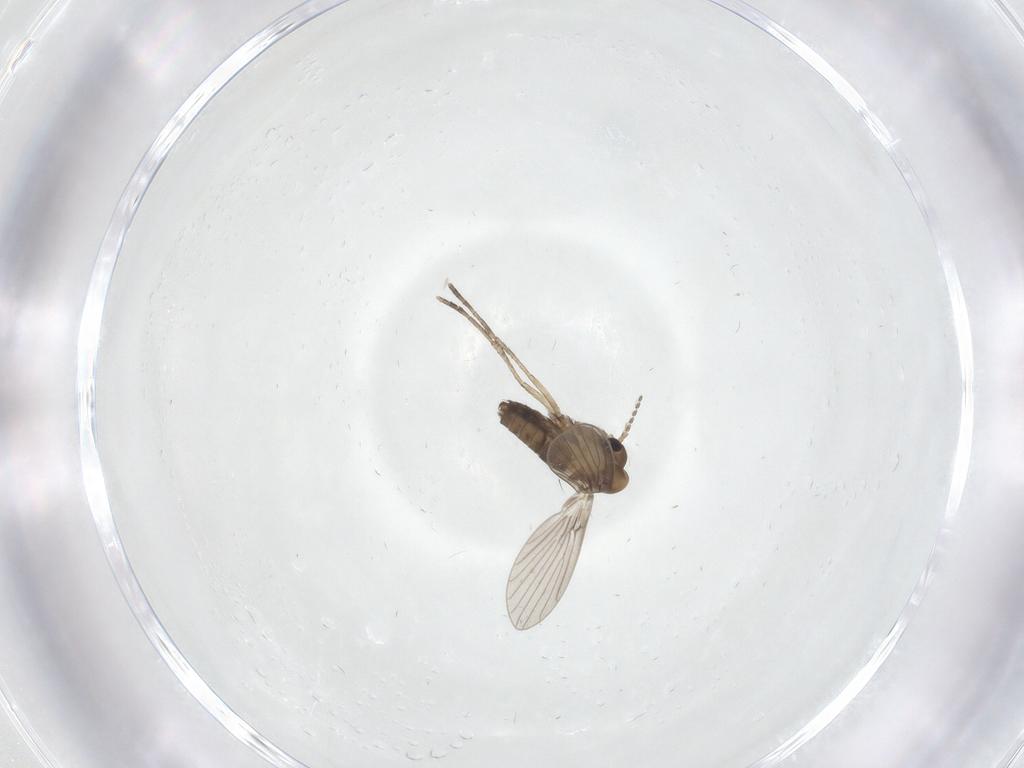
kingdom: Animalia
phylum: Arthropoda
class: Insecta
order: Diptera
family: Psychodidae
